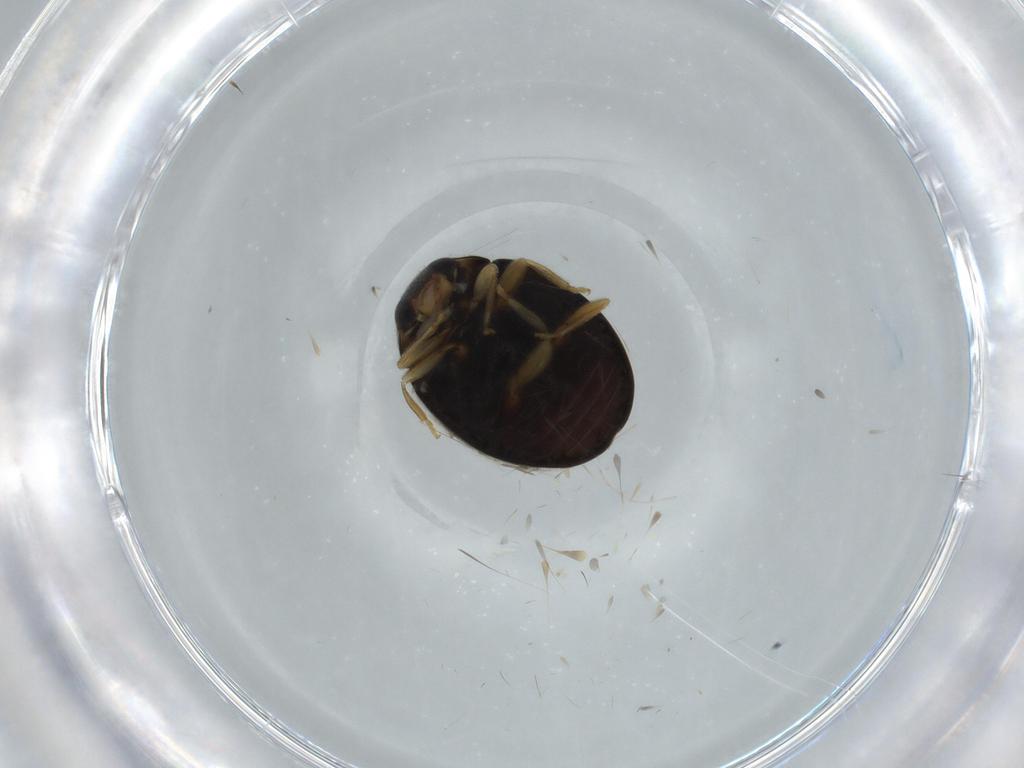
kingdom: Animalia
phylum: Arthropoda
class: Insecta
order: Coleoptera
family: Coccinellidae
